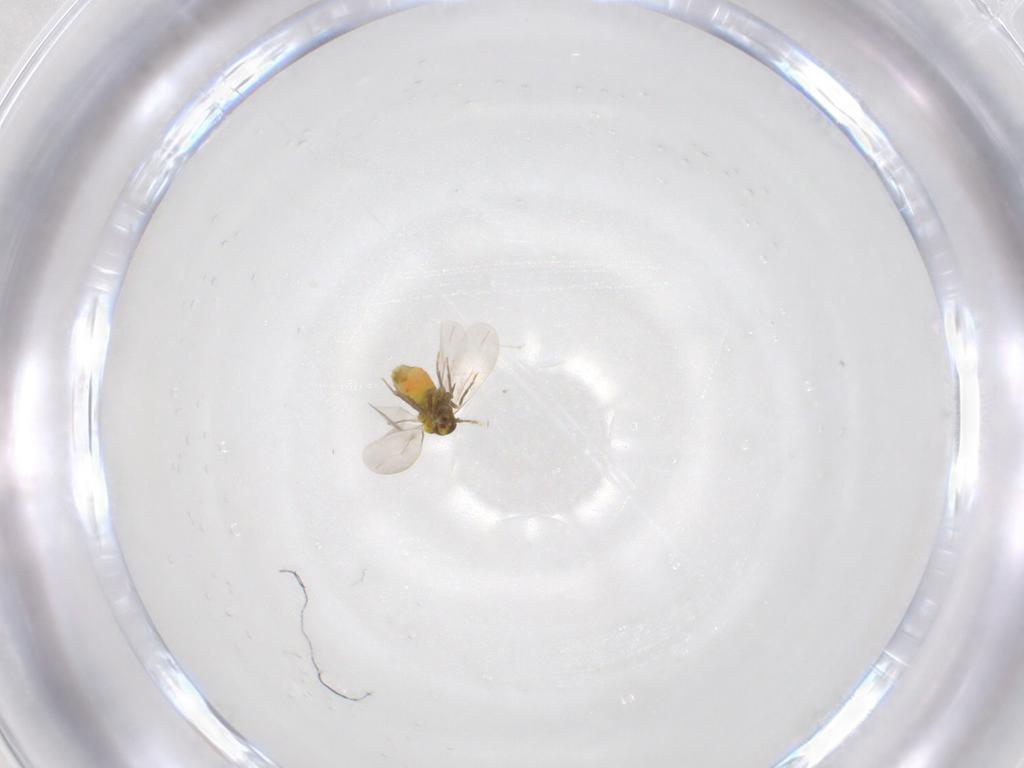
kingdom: Animalia
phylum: Arthropoda
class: Insecta
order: Hemiptera
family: Aleyrodidae
